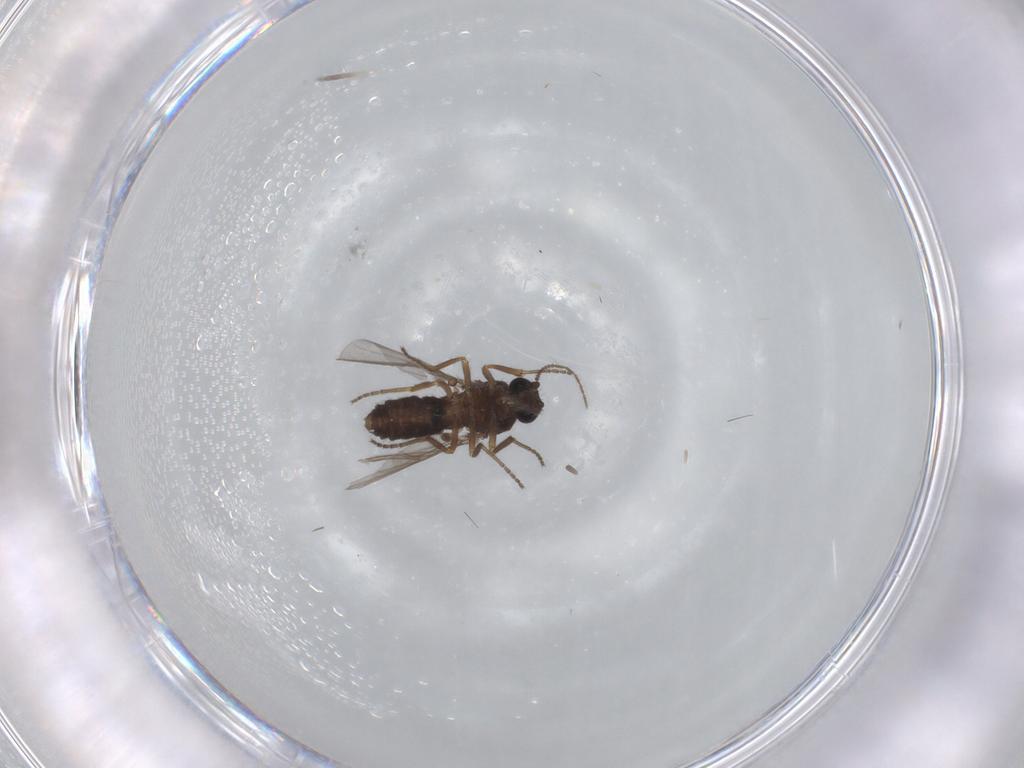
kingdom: Animalia
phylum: Arthropoda
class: Insecta
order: Diptera
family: Ceratopogonidae
